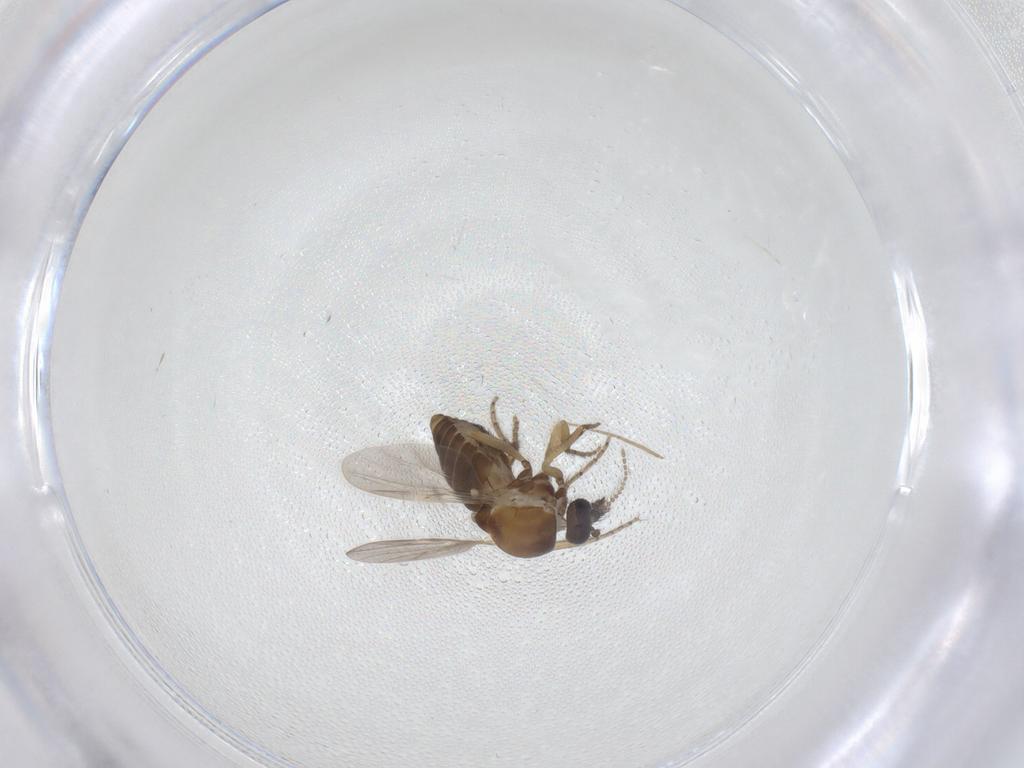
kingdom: Animalia
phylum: Arthropoda
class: Insecta
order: Diptera
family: Ceratopogonidae
